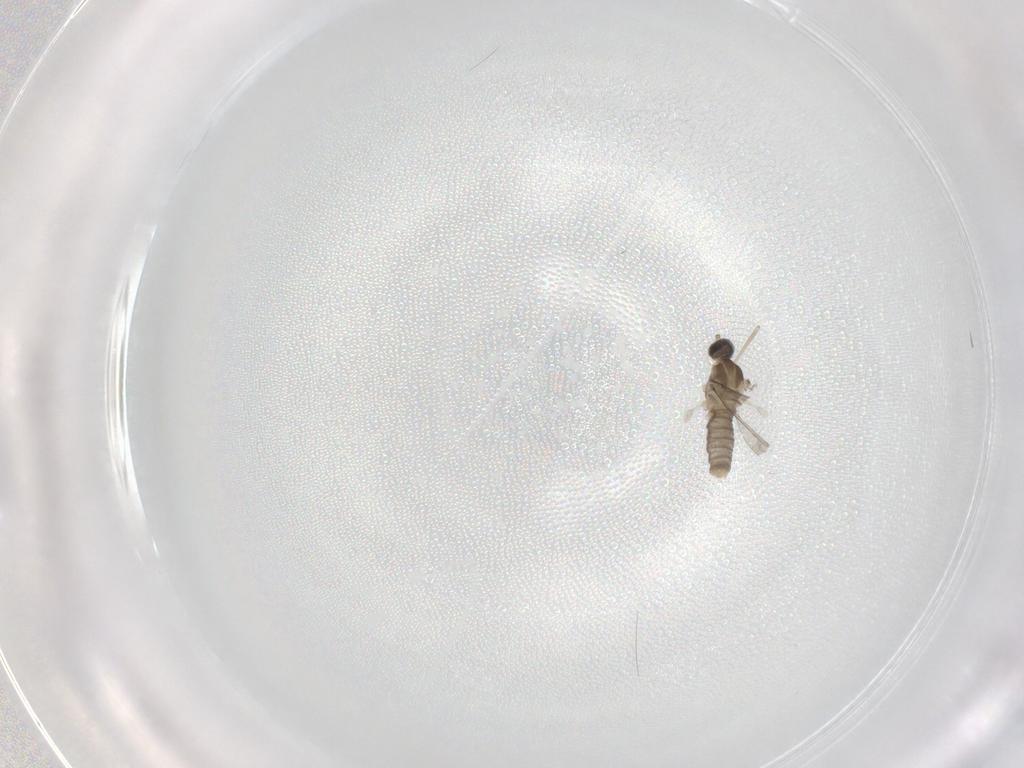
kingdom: Animalia
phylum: Arthropoda
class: Insecta
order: Diptera
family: Cecidomyiidae
